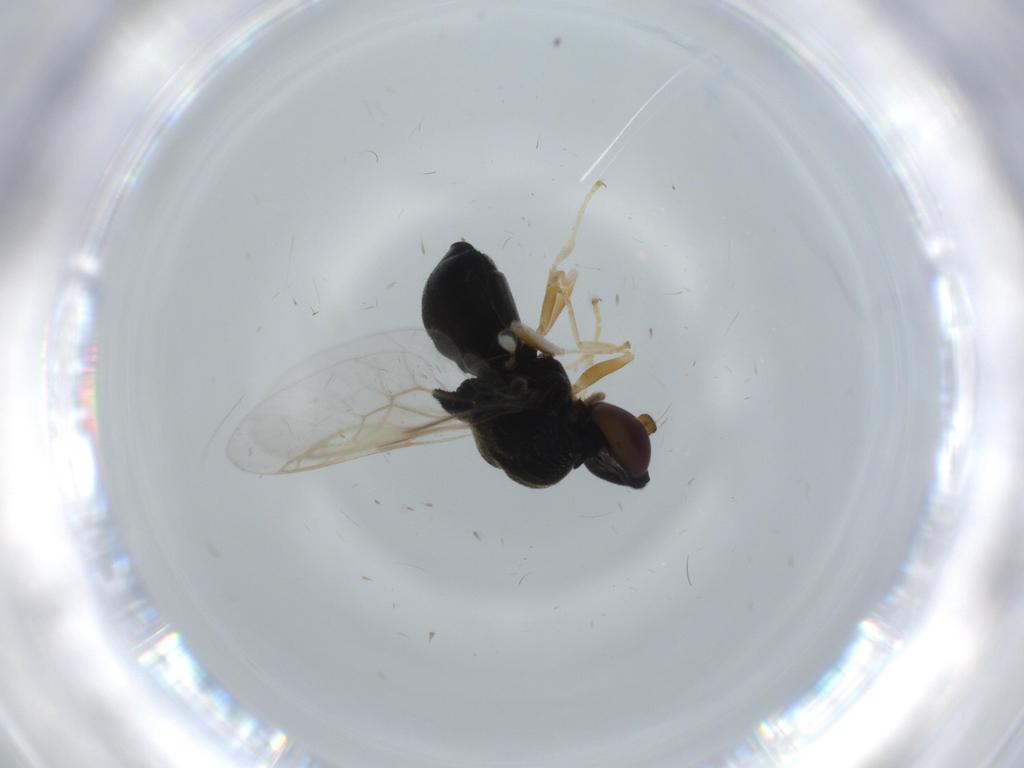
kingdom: Animalia
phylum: Arthropoda
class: Insecta
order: Diptera
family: Stratiomyidae
